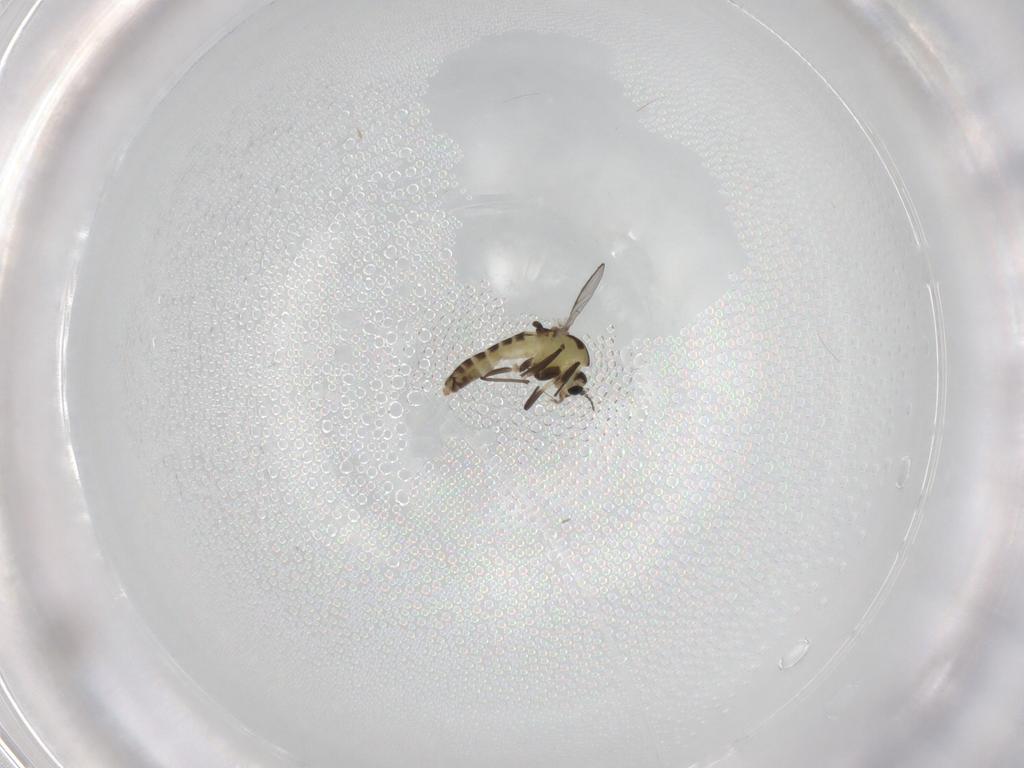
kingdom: Animalia
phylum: Arthropoda
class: Insecta
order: Diptera
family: Chironomidae
